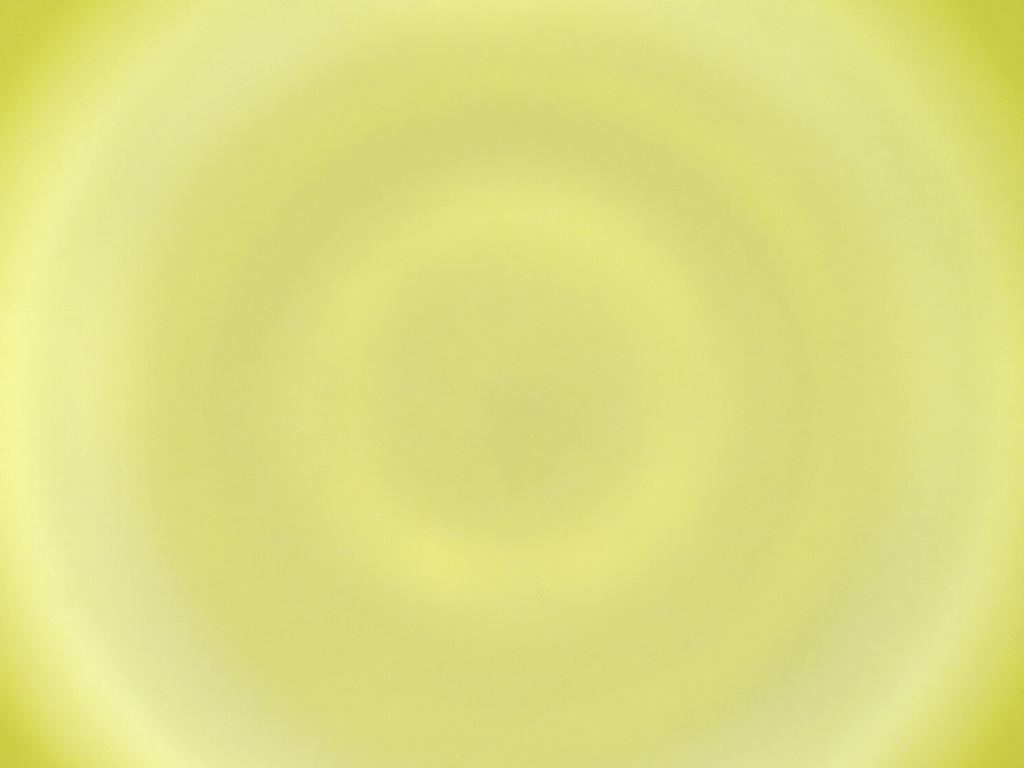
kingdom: Animalia
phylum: Arthropoda
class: Insecta
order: Diptera
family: Cecidomyiidae
